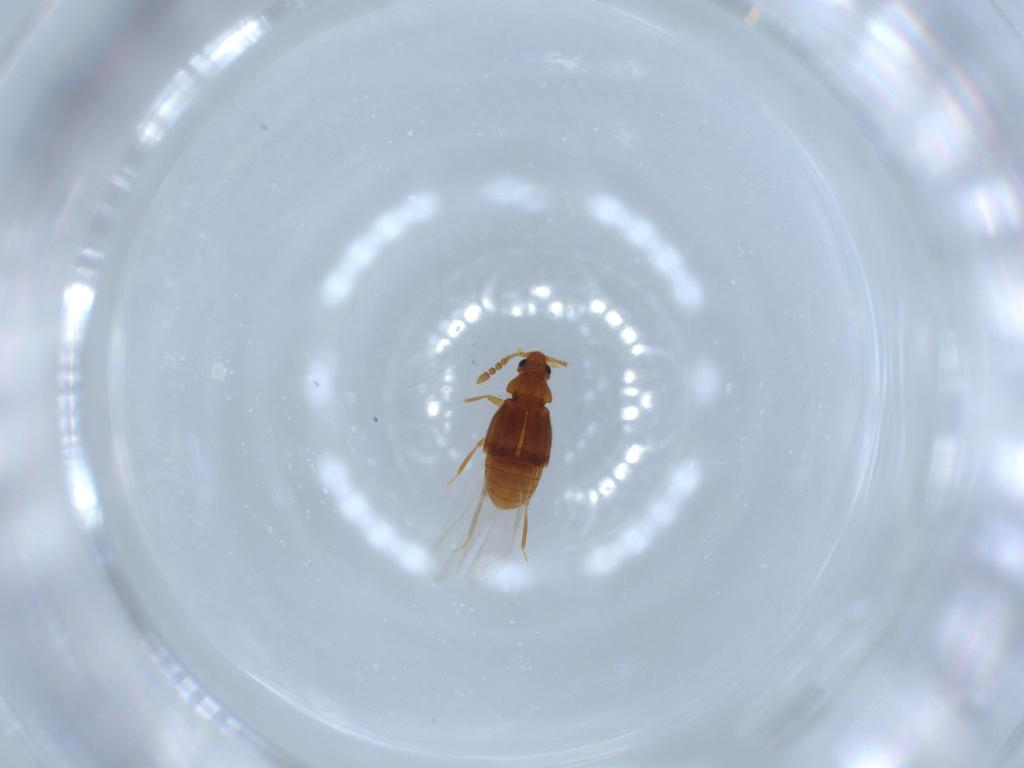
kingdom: Animalia
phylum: Arthropoda
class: Insecta
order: Coleoptera
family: Staphylinidae
